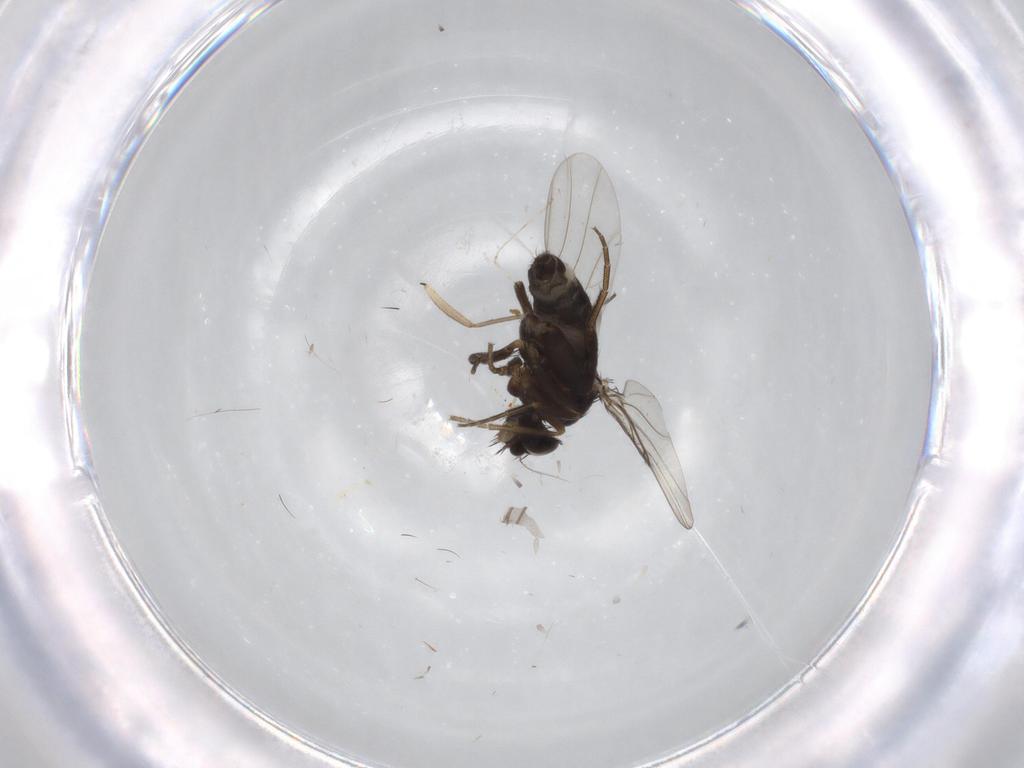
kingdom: Animalia
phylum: Arthropoda
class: Insecta
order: Diptera
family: Sciaridae
